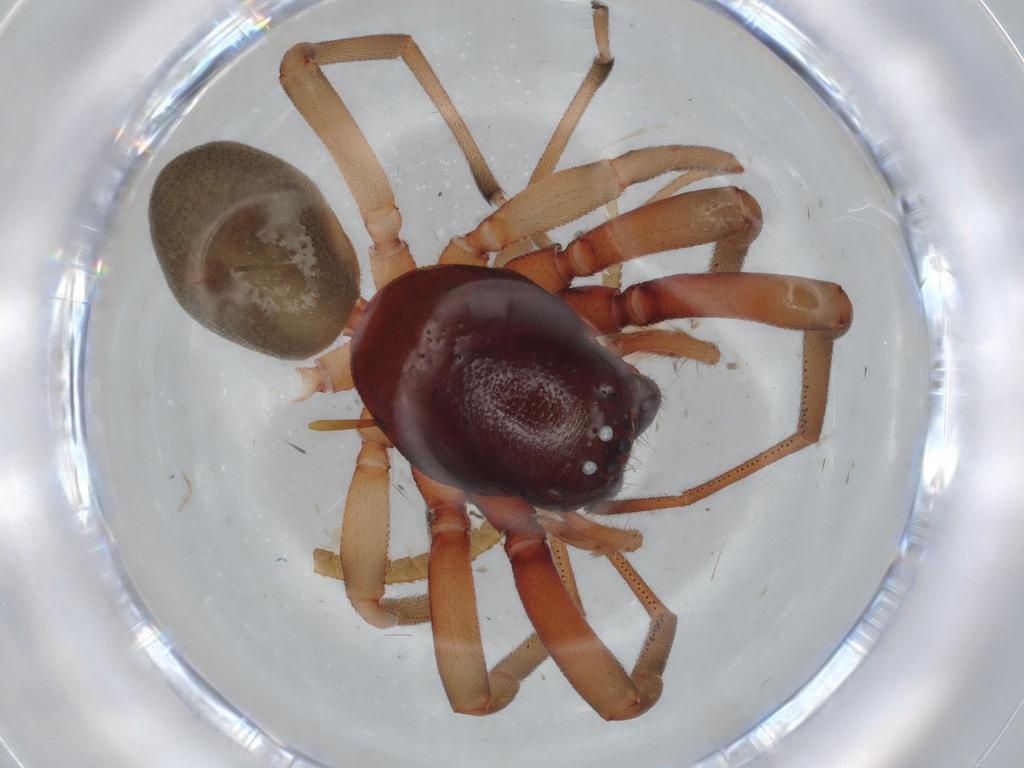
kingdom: Animalia
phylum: Arthropoda
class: Arachnida
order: Araneae
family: Trachelidae
